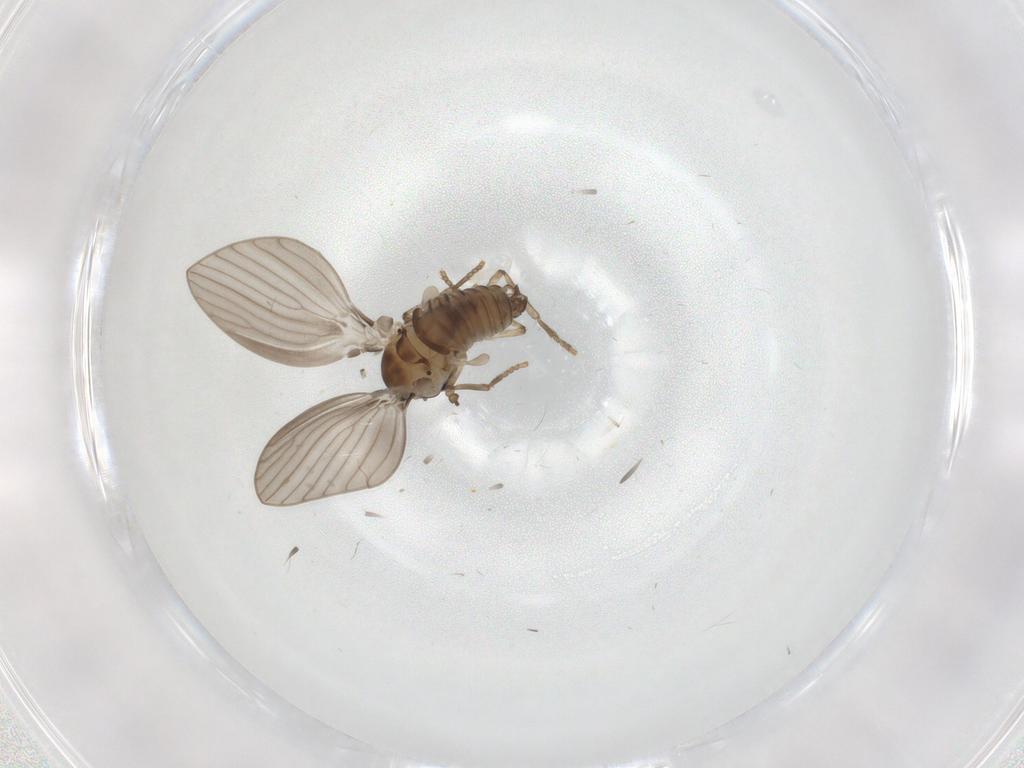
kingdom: Animalia
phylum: Arthropoda
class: Insecta
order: Diptera
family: Psychodidae
